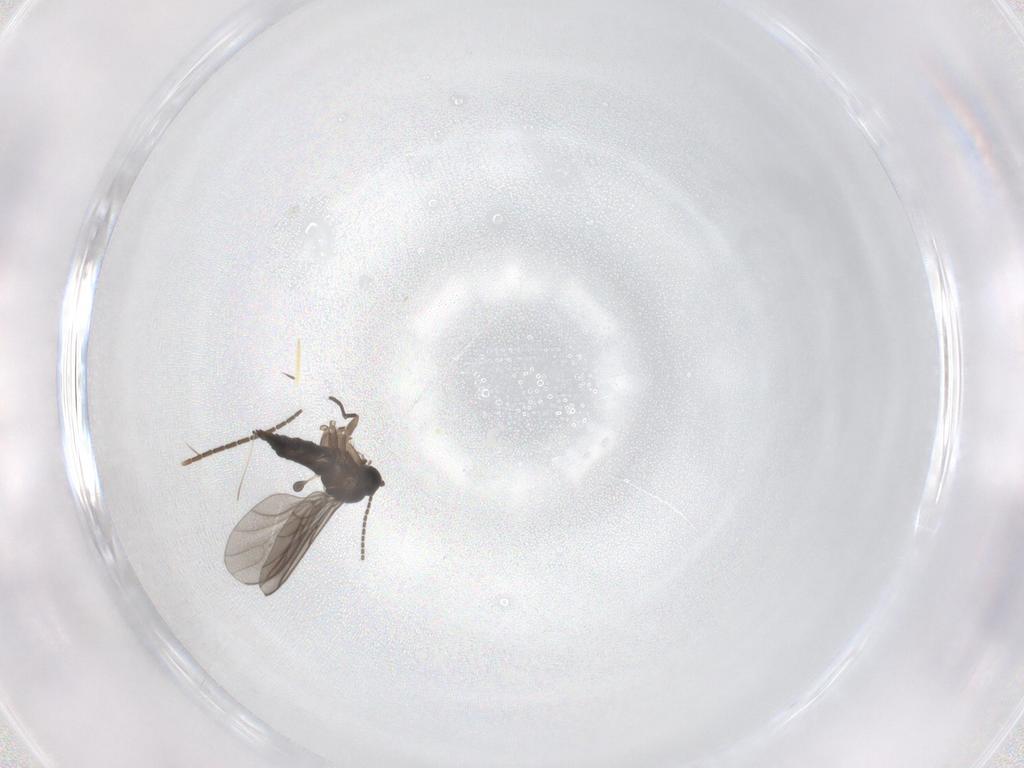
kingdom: Animalia
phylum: Arthropoda
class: Insecta
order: Diptera
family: Sciaridae
